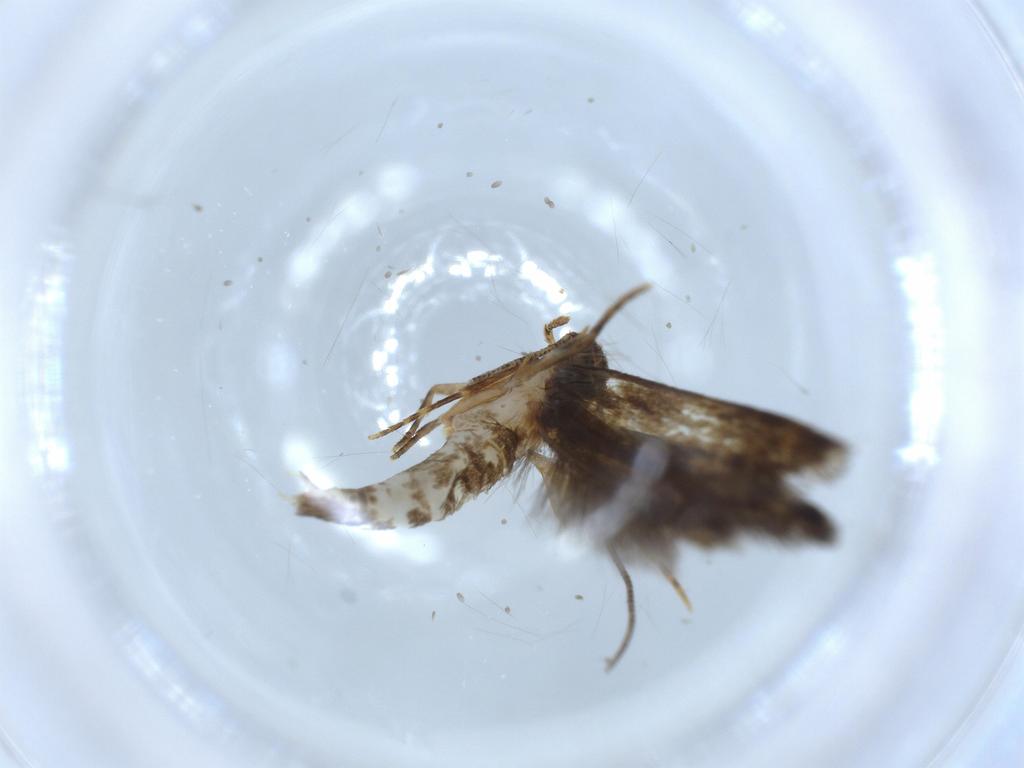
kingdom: Animalia
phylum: Arthropoda
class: Insecta
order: Lepidoptera
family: Tineidae
